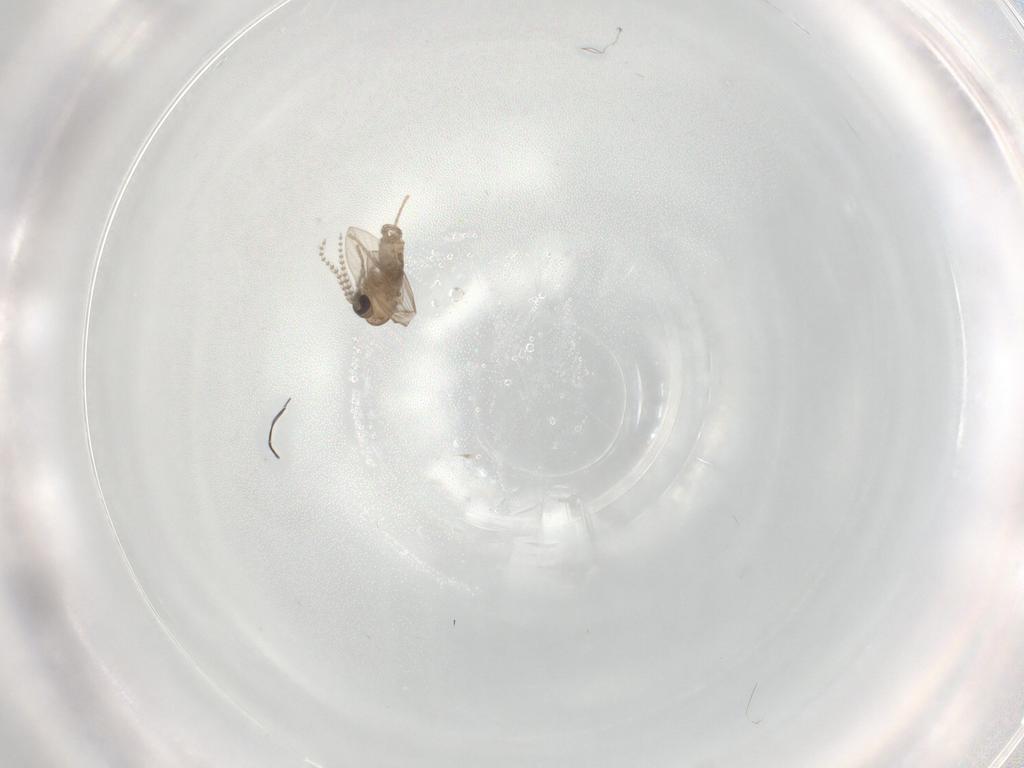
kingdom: Animalia
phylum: Arthropoda
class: Insecta
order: Diptera
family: Psychodidae
